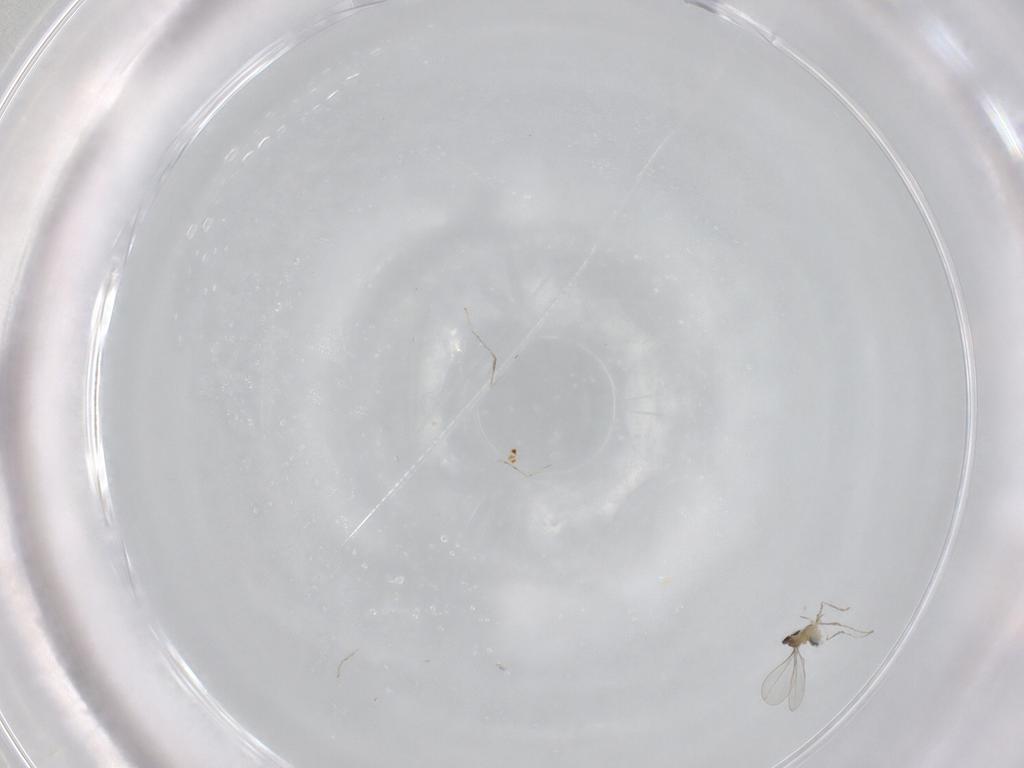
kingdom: Animalia
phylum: Arthropoda
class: Insecta
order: Diptera
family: Cecidomyiidae
